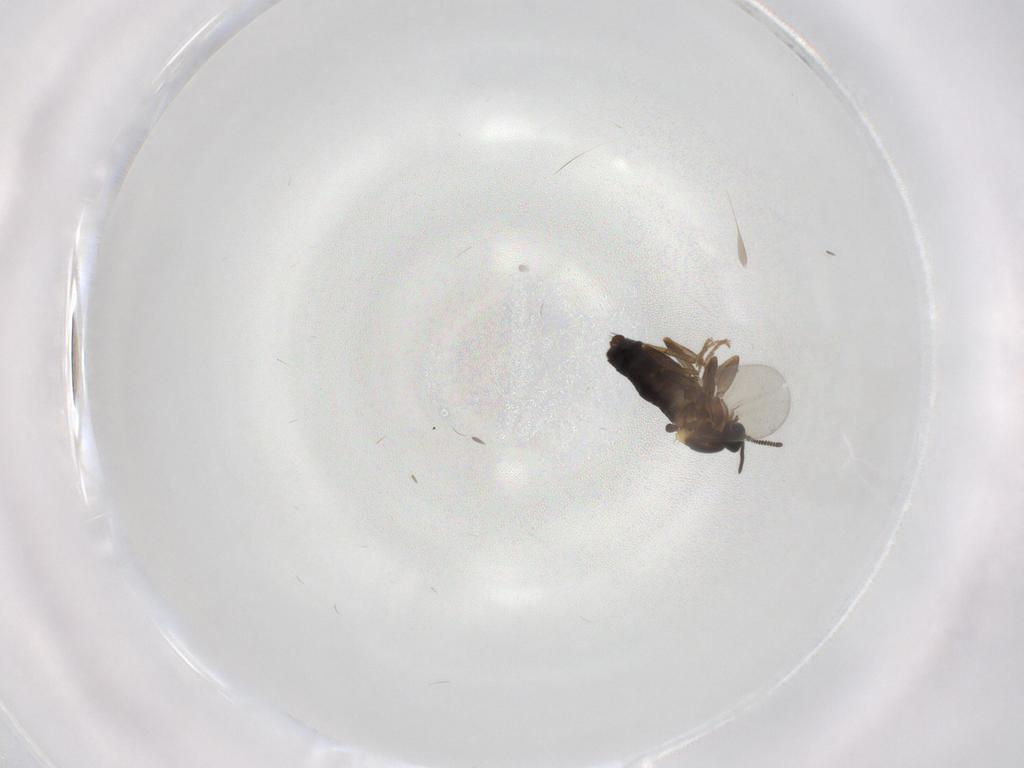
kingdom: Animalia
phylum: Arthropoda
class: Insecta
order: Diptera
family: Scatopsidae
